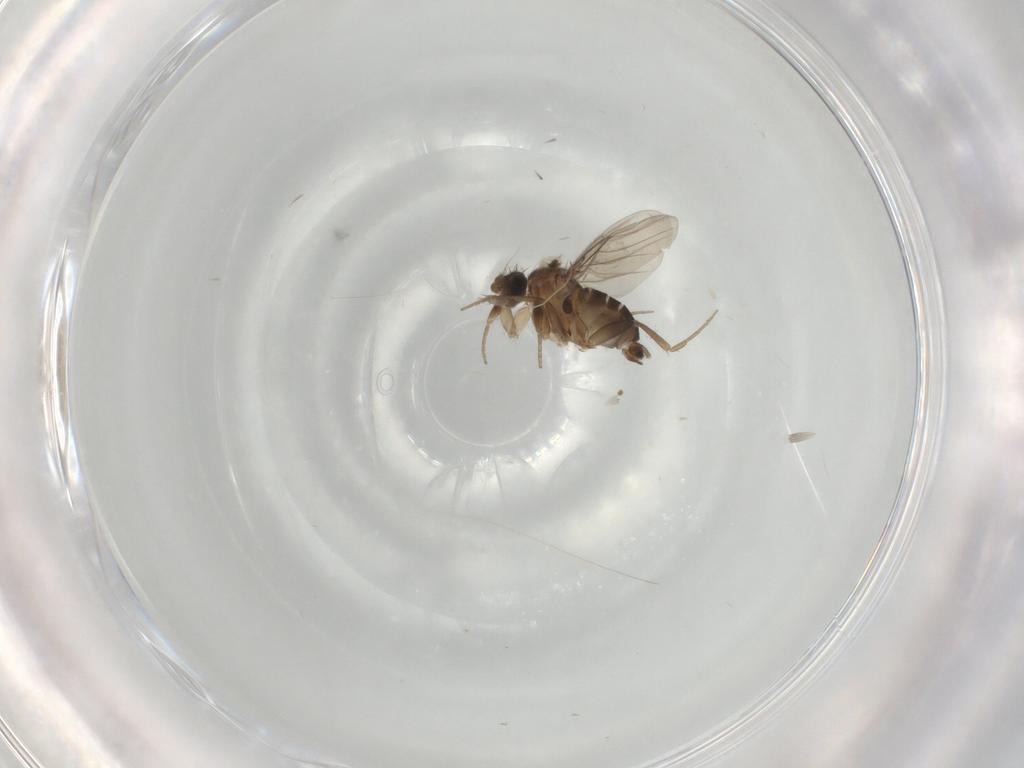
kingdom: Animalia
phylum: Arthropoda
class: Insecta
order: Diptera
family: Phoridae
